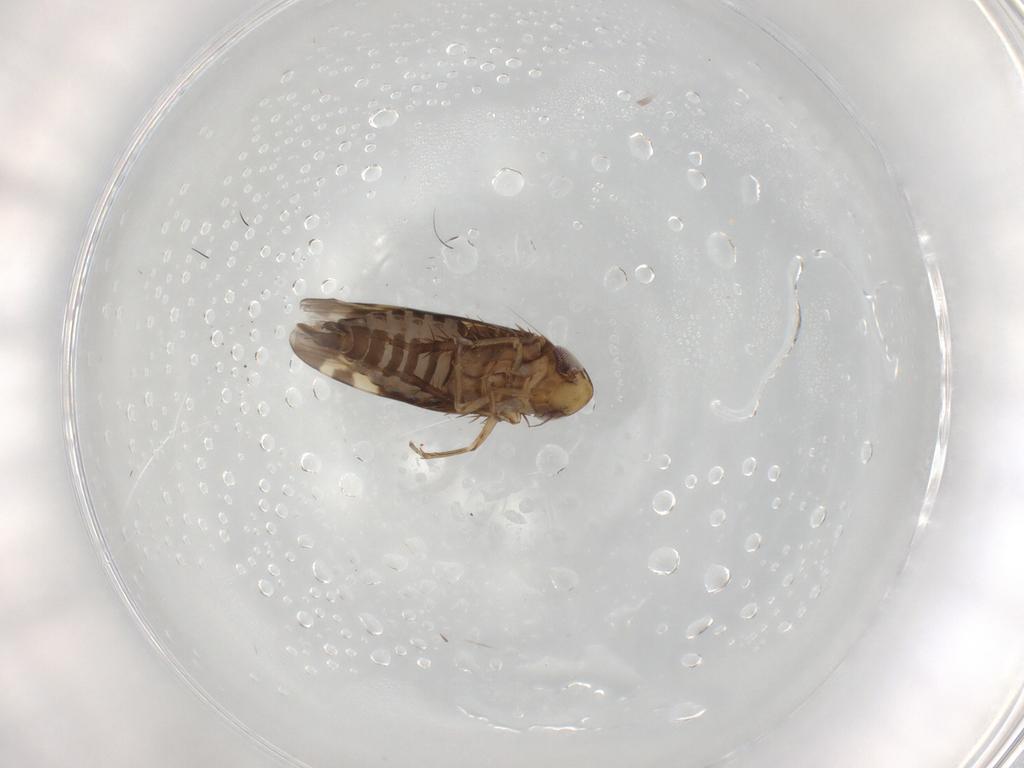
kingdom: Animalia
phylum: Arthropoda
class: Insecta
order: Hemiptera
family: Cicadellidae
